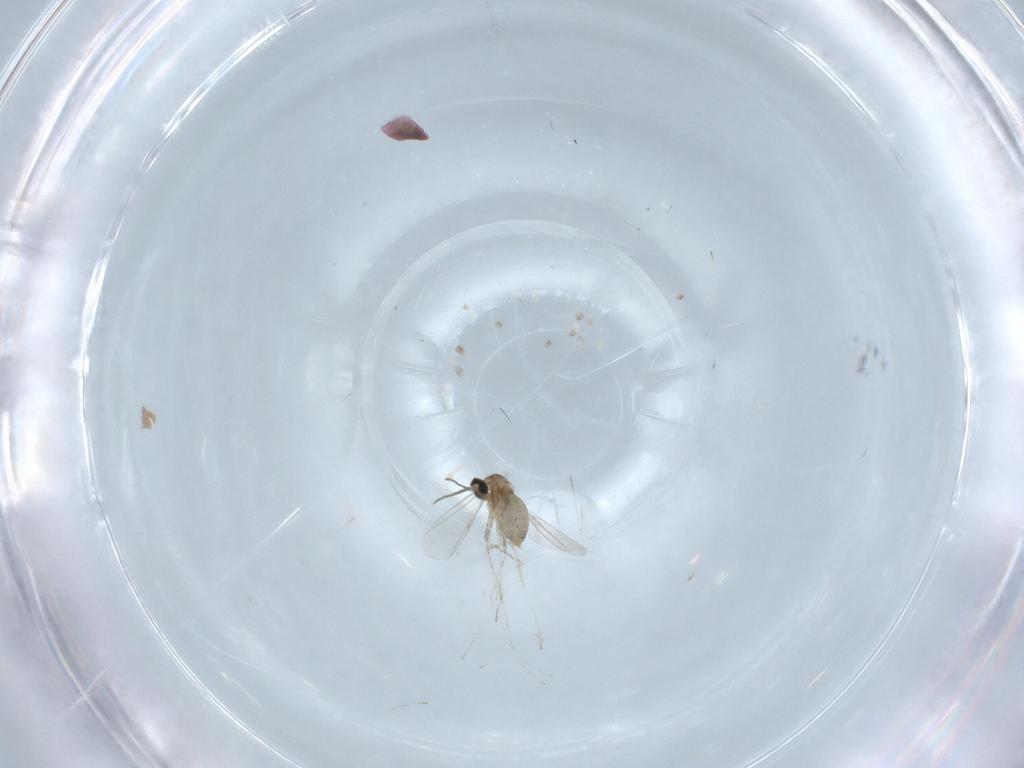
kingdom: Animalia
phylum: Arthropoda
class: Insecta
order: Diptera
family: Cecidomyiidae
